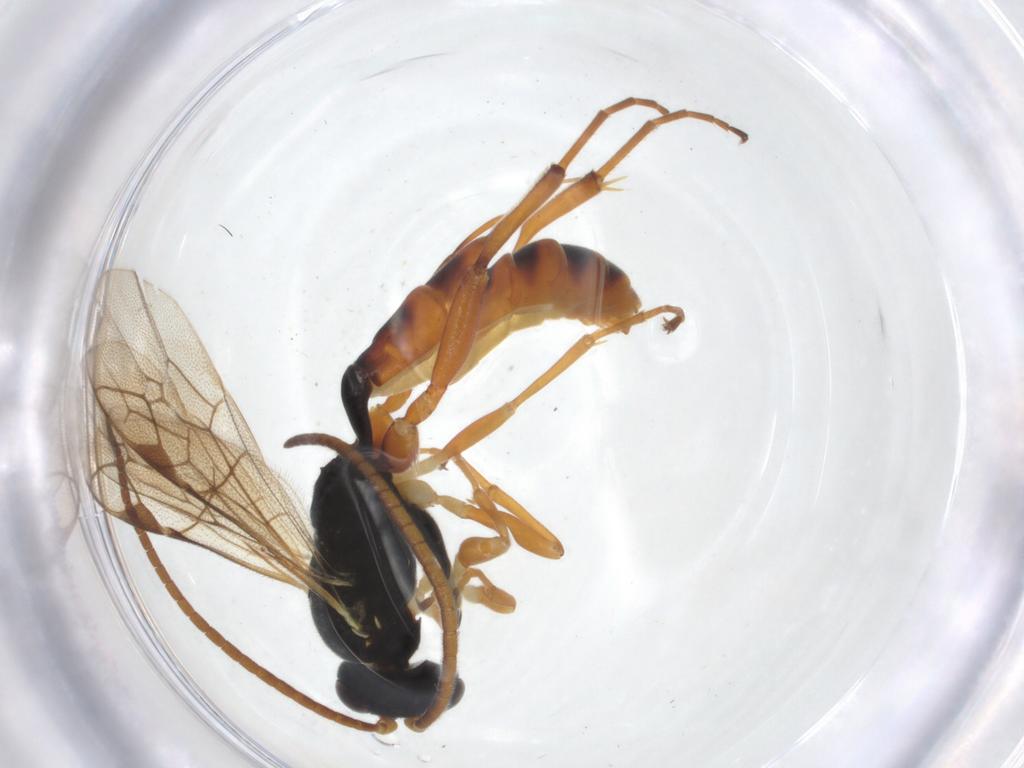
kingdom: Animalia
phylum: Arthropoda
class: Insecta
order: Hymenoptera
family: Ichneumonidae
